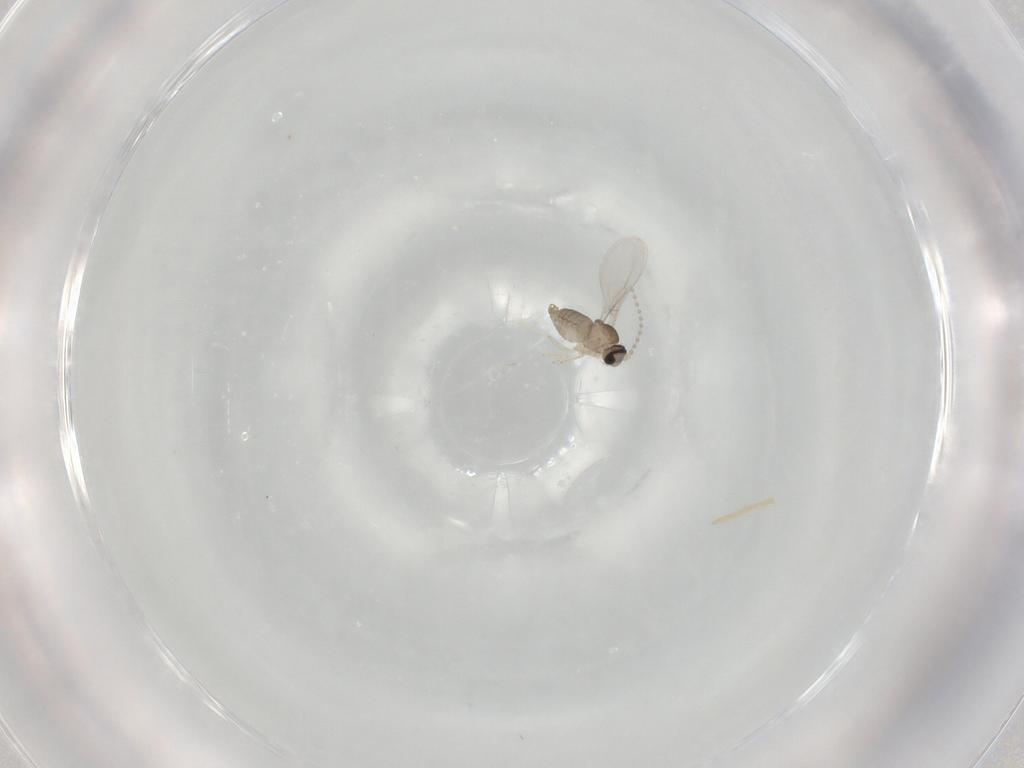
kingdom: Animalia
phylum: Arthropoda
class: Insecta
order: Diptera
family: Cecidomyiidae
